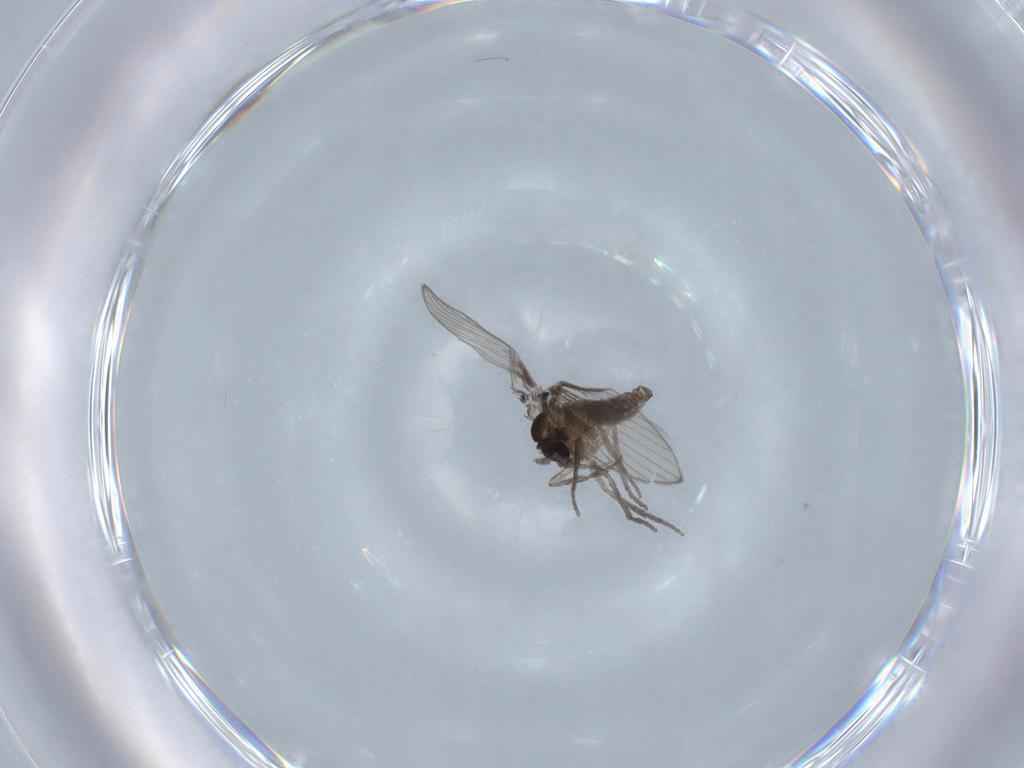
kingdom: Animalia
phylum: Arthropoda
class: Insecta
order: Diptera
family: Psychodidae
